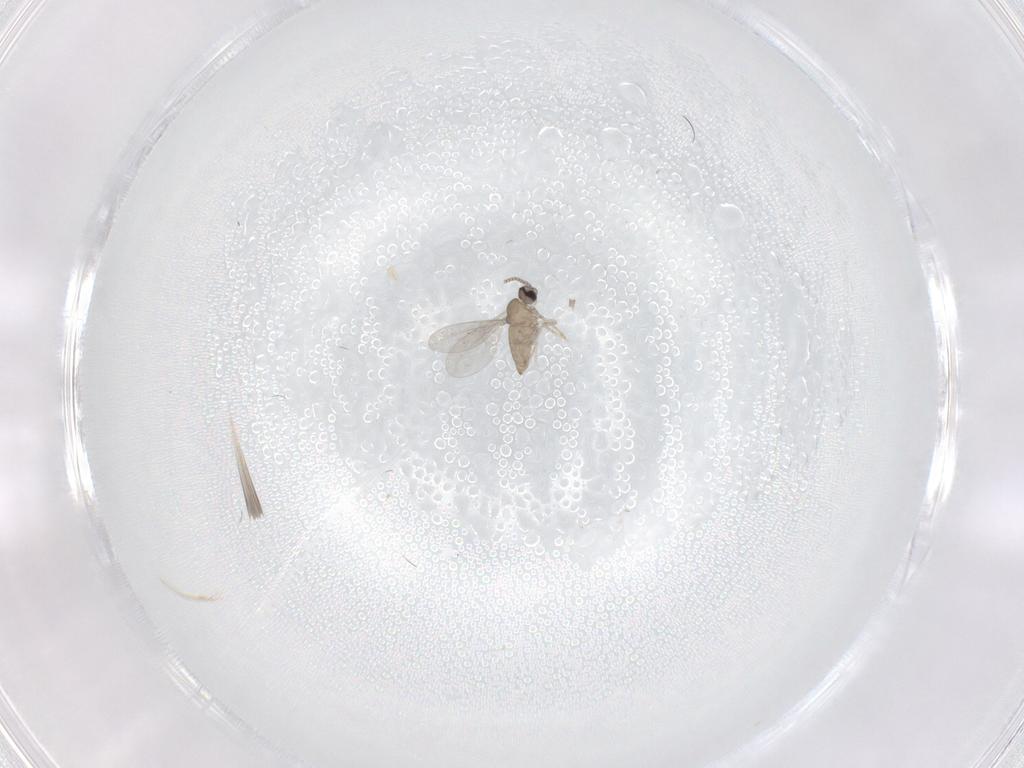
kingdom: Animalia
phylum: Arthropoda
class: Insecta
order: Diptera
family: Cecidomyiidae
